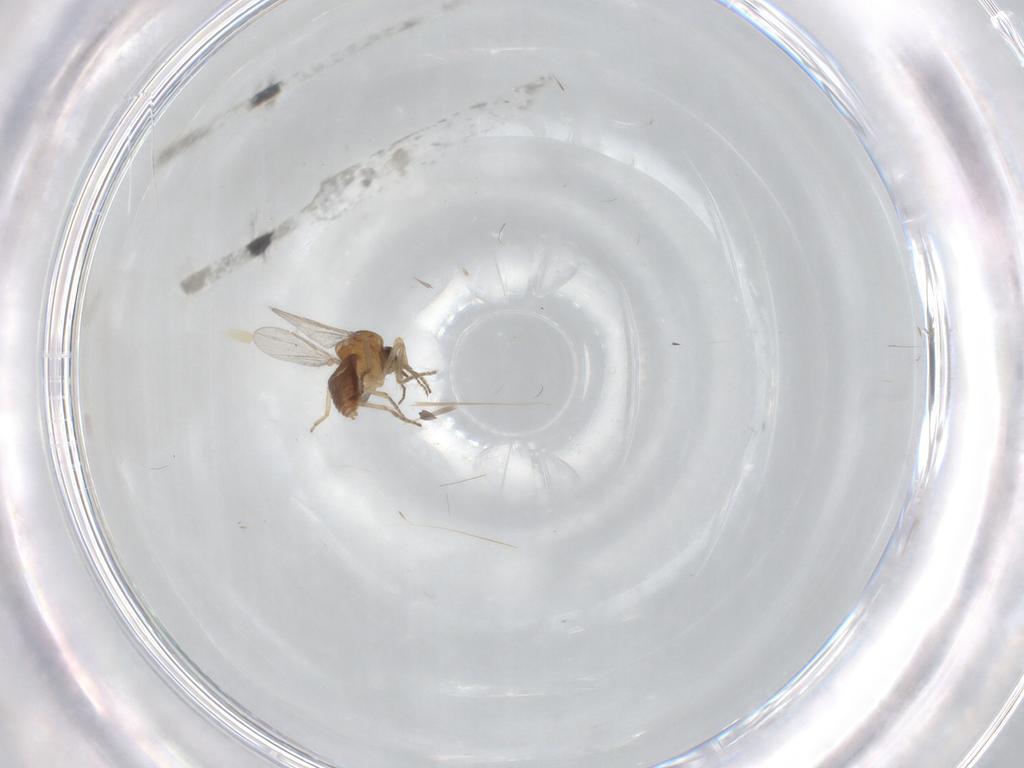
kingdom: Animalia
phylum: Arthropoda
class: Insecta
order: Diptera
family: Ceratopogonidae
